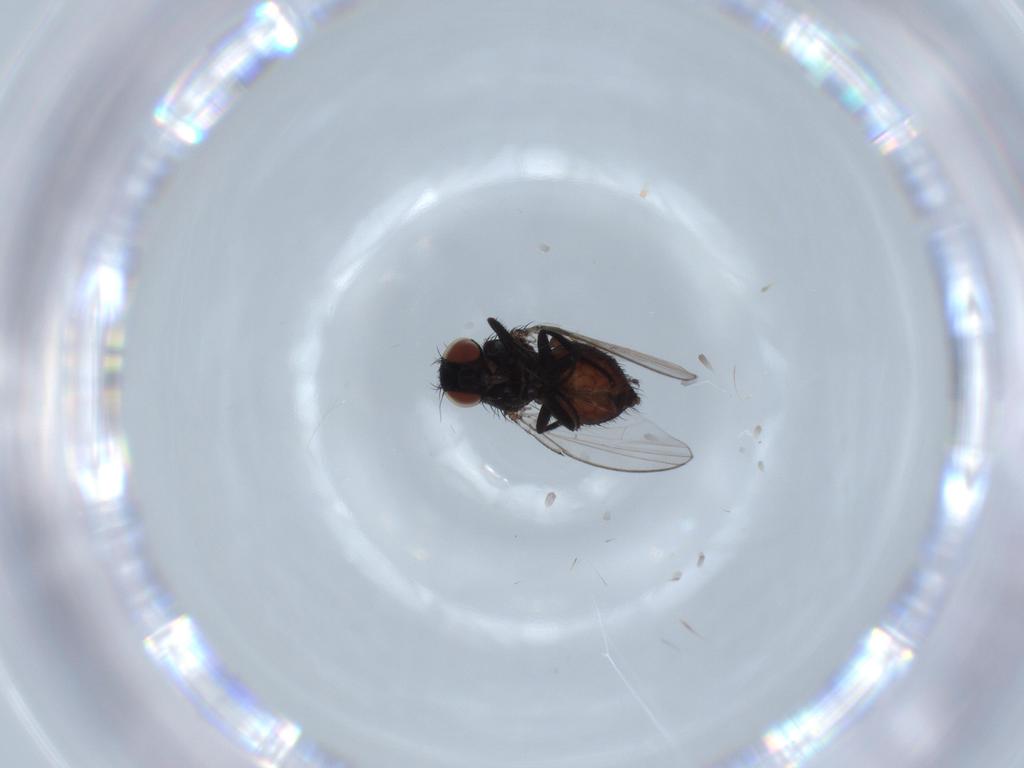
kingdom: Animalia
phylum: Arthropoda
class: Insecta
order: Diptera
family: Milichiidae
